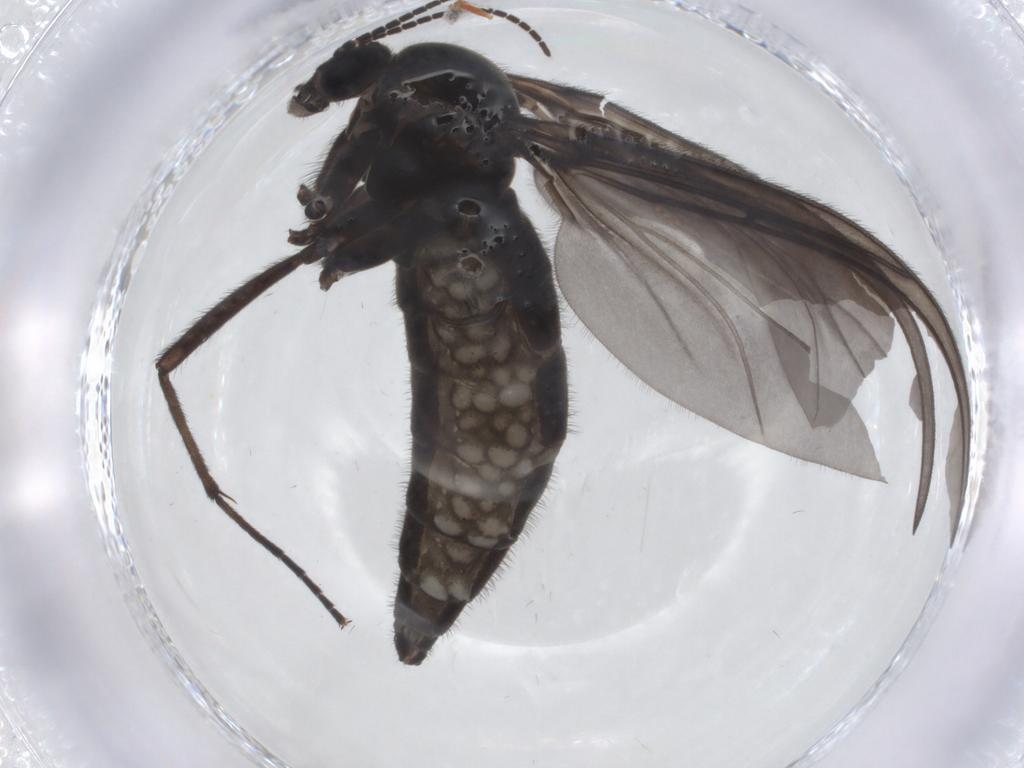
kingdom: Animalia
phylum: Arthropoda
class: Insecta
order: Diptera
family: Sciaridae
